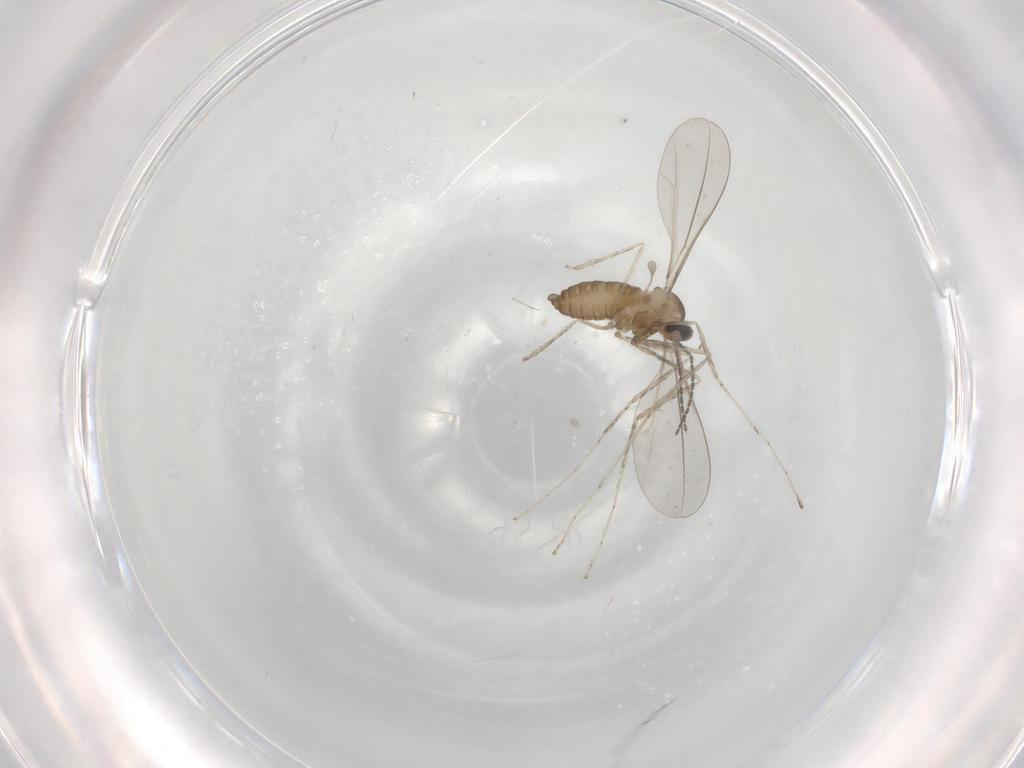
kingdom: Animalia
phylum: Arthropoda
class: Insecta
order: Diptera
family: Cecidomyiidae
